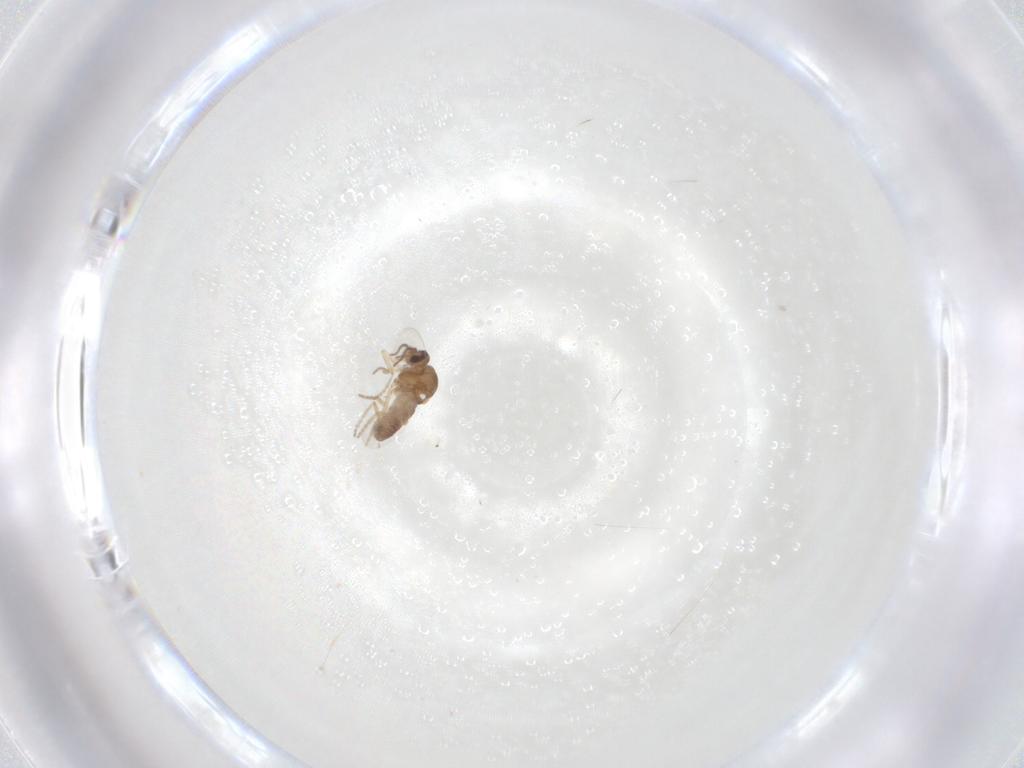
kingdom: Animalia
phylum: Arthropoda
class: Insecta
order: Diptera
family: Ceratopogonidae
